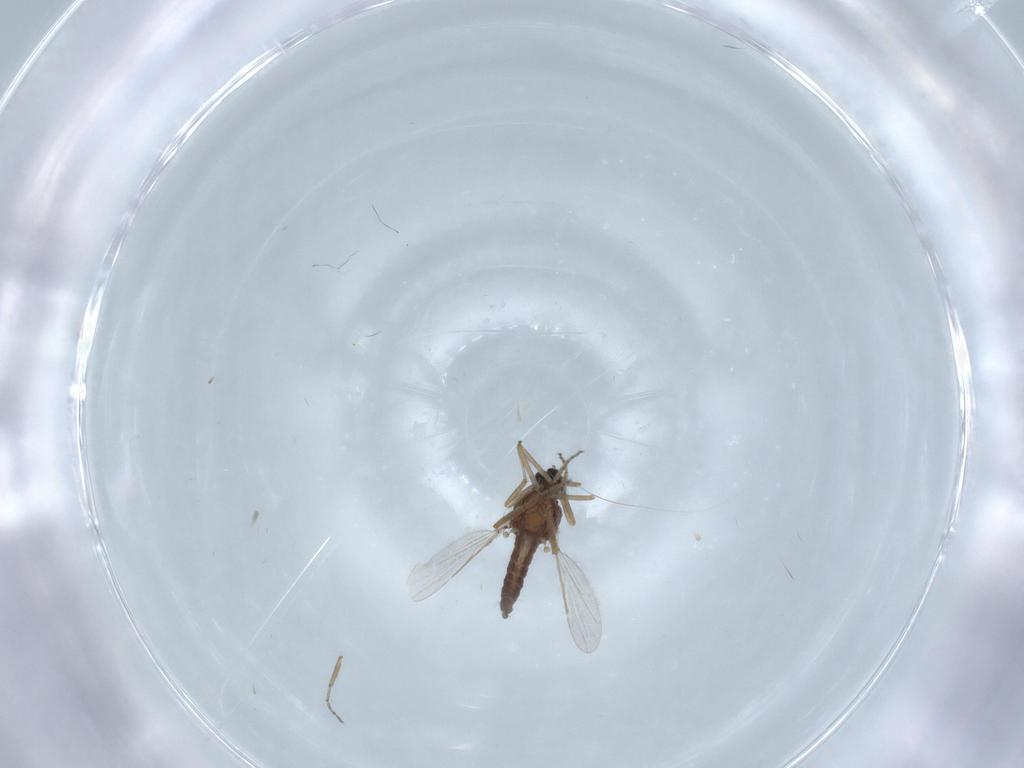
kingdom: Animalia
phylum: Arthropoda
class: Insecta
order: Diptera
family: Ceratopogonidae
